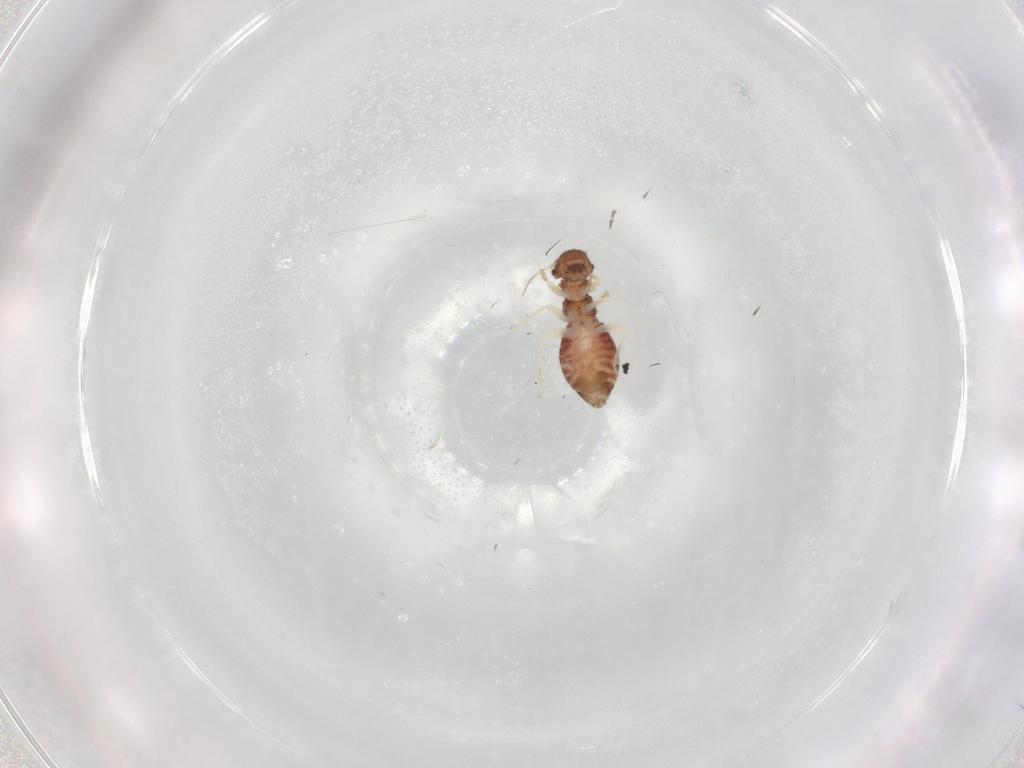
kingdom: Animalia
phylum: Arthropoda
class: Insecta
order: Psocodea
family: Archipsocidae
